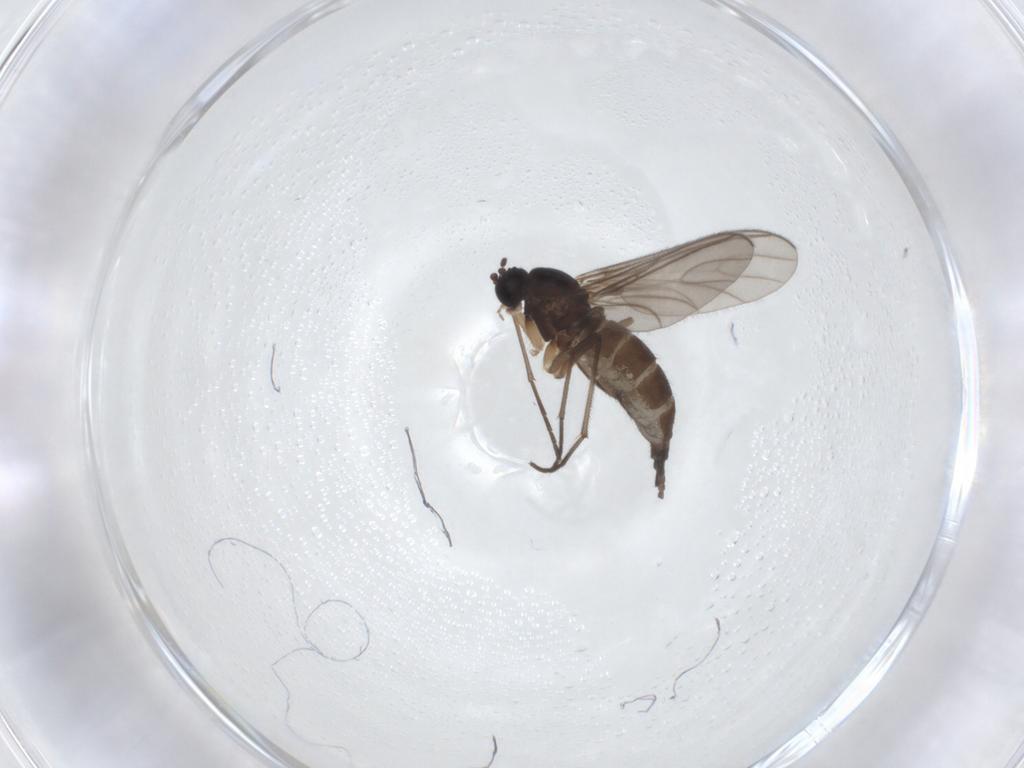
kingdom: Animalia
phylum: Arthropoda
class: Insecta
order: Diptera
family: Sciaridae
